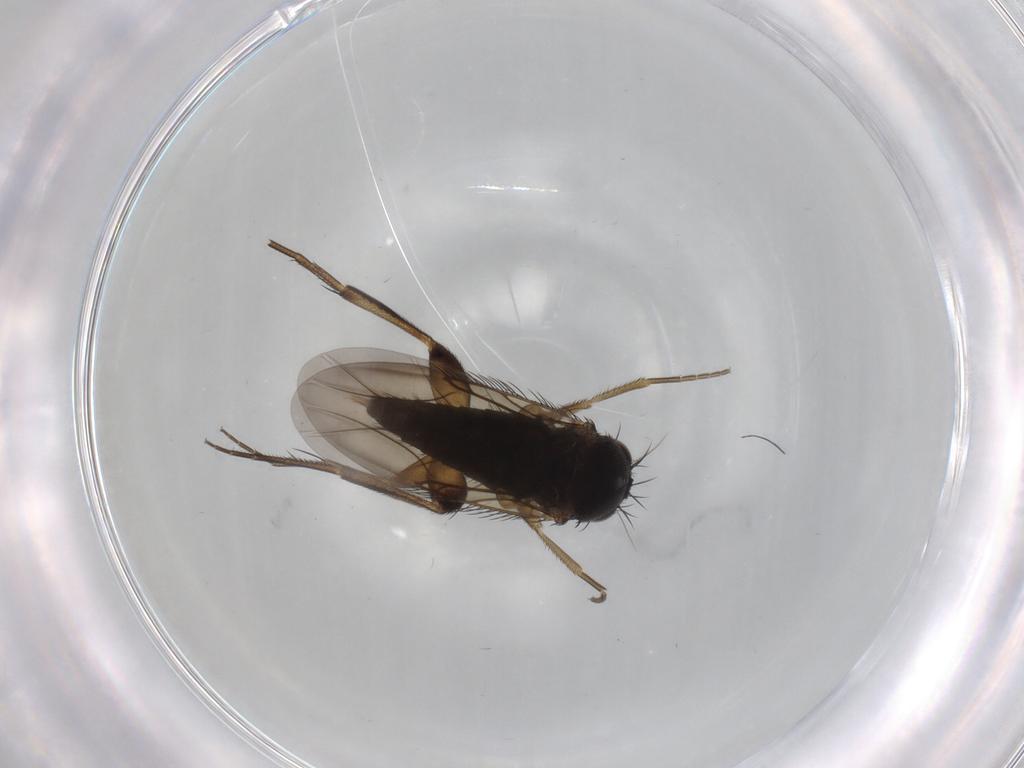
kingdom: Animalia
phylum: Arthropoda
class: Insecta
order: Diptera
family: Phoridae
